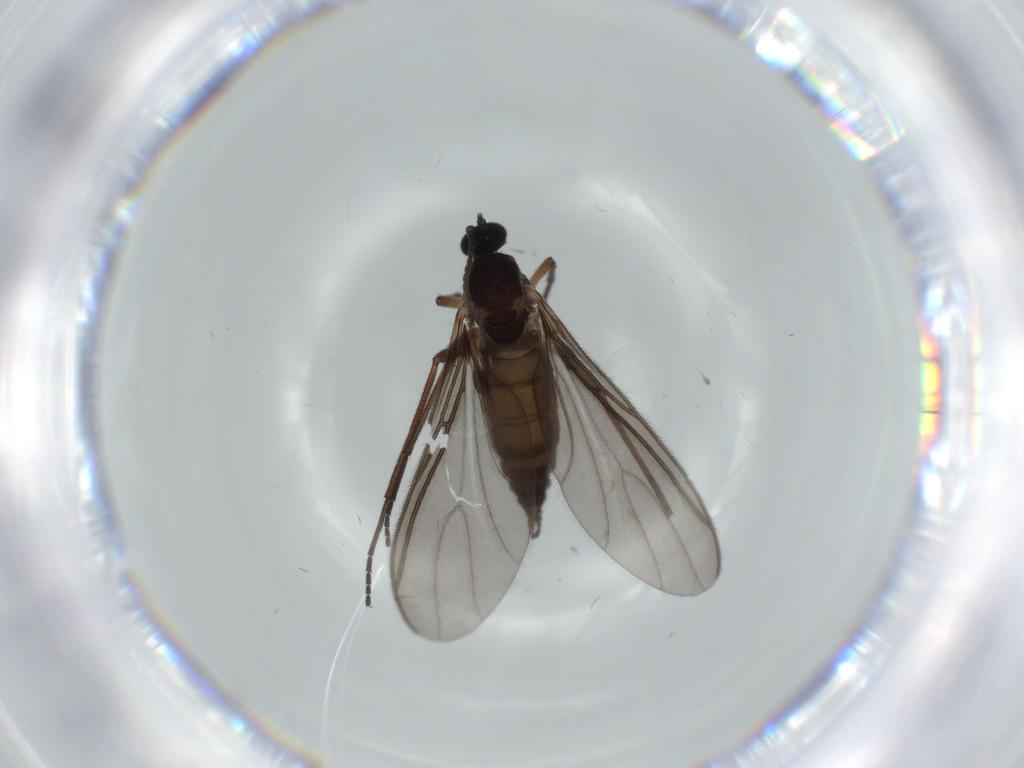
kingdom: Animalia
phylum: Arthropoda
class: Insecta
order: Diptera
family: Sciaridae
